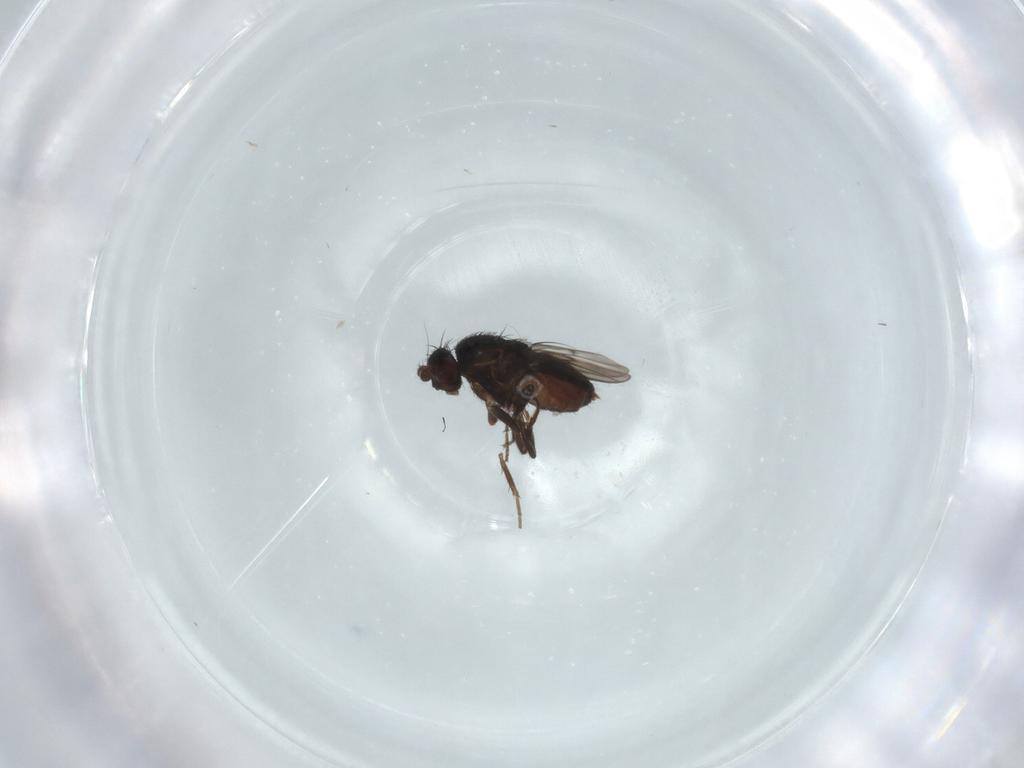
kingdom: Animalia
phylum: Arthropoda
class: Insecta
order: Diptera
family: Sphaeroceridae
